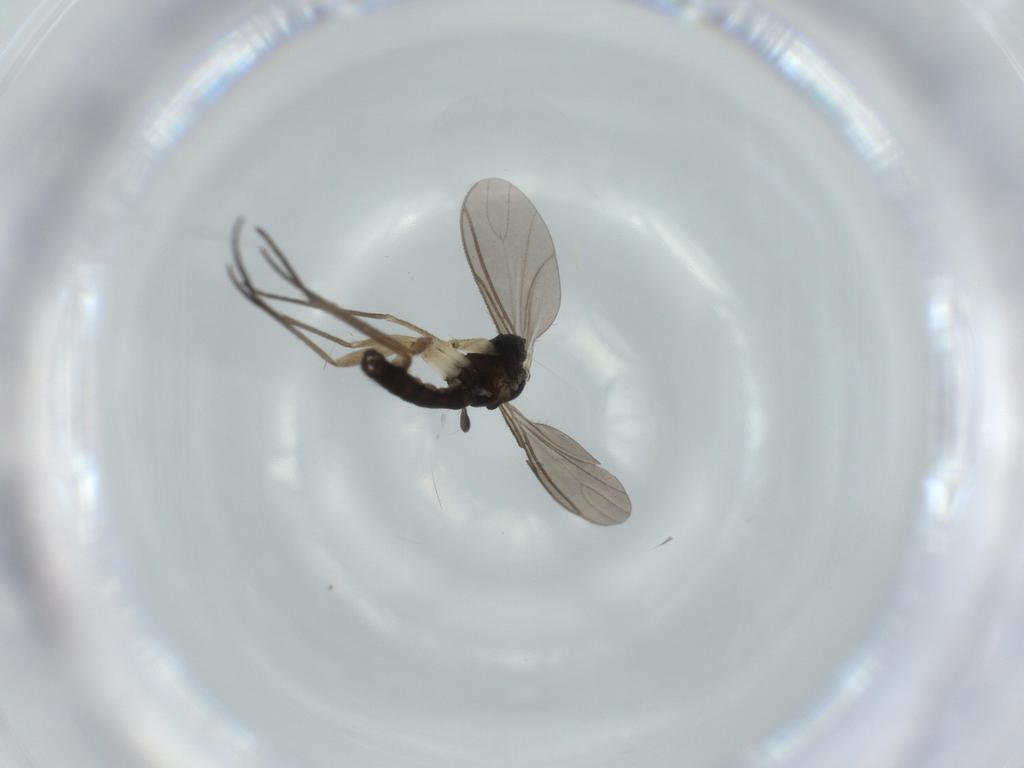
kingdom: Animalia
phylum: Arthropoda
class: Insecta
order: Diptera
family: Sciaridae
